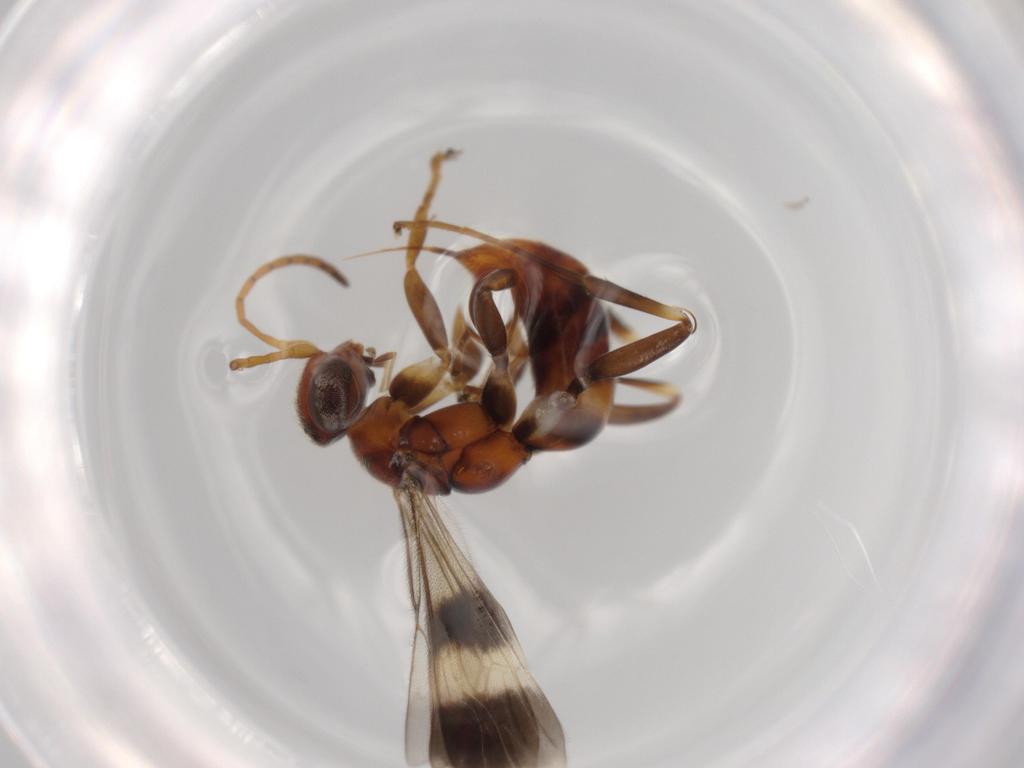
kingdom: Animalia
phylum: Arthropoda
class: Insecta
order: Hymenoptera
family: Pompilidae
